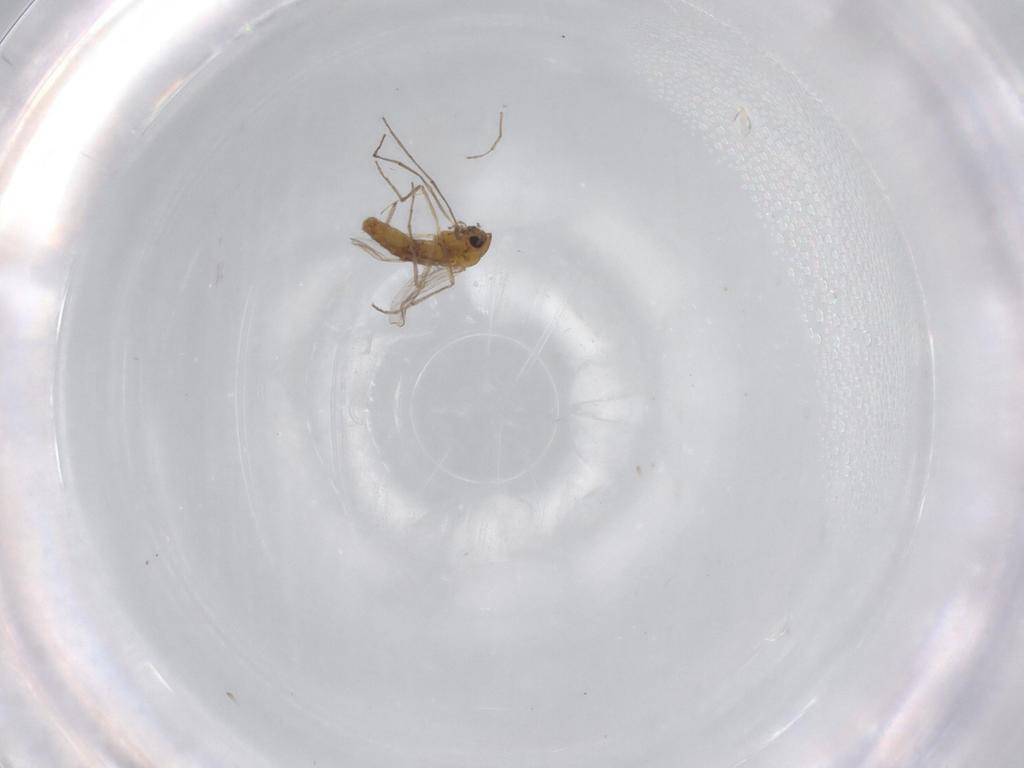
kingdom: Animalia
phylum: Arthropoda
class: Insecta
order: Diptera
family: Chironomidae
